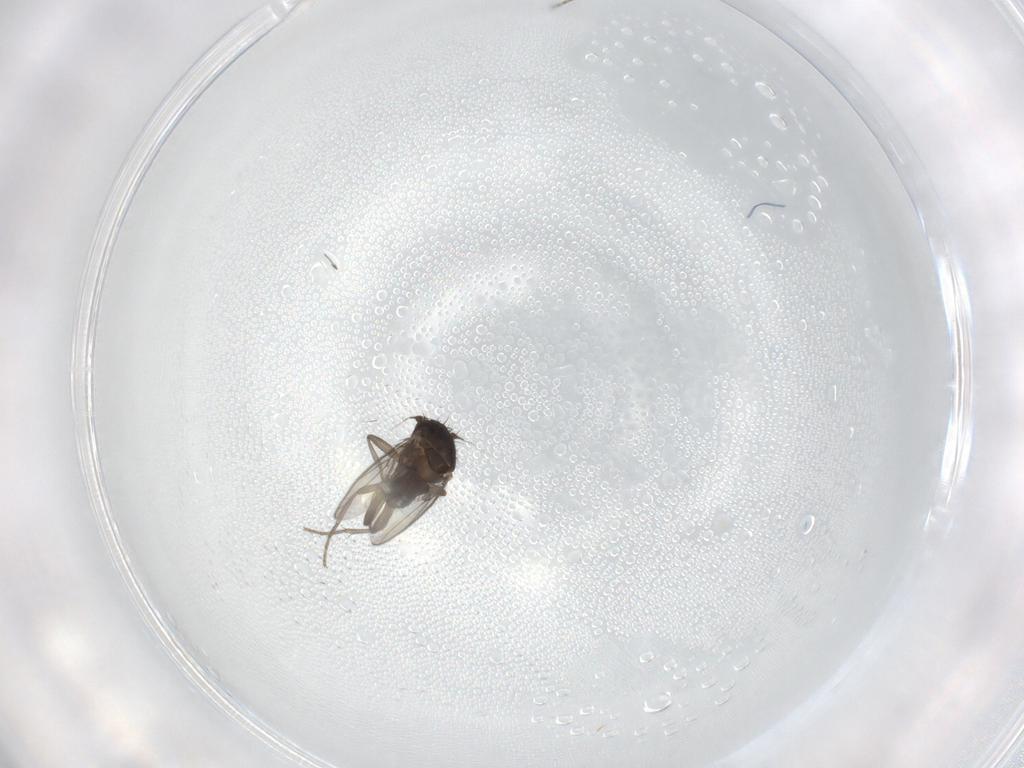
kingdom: Animalia
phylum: Arthropoda
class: Insecta
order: Diptera
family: Sphaeroceridae
